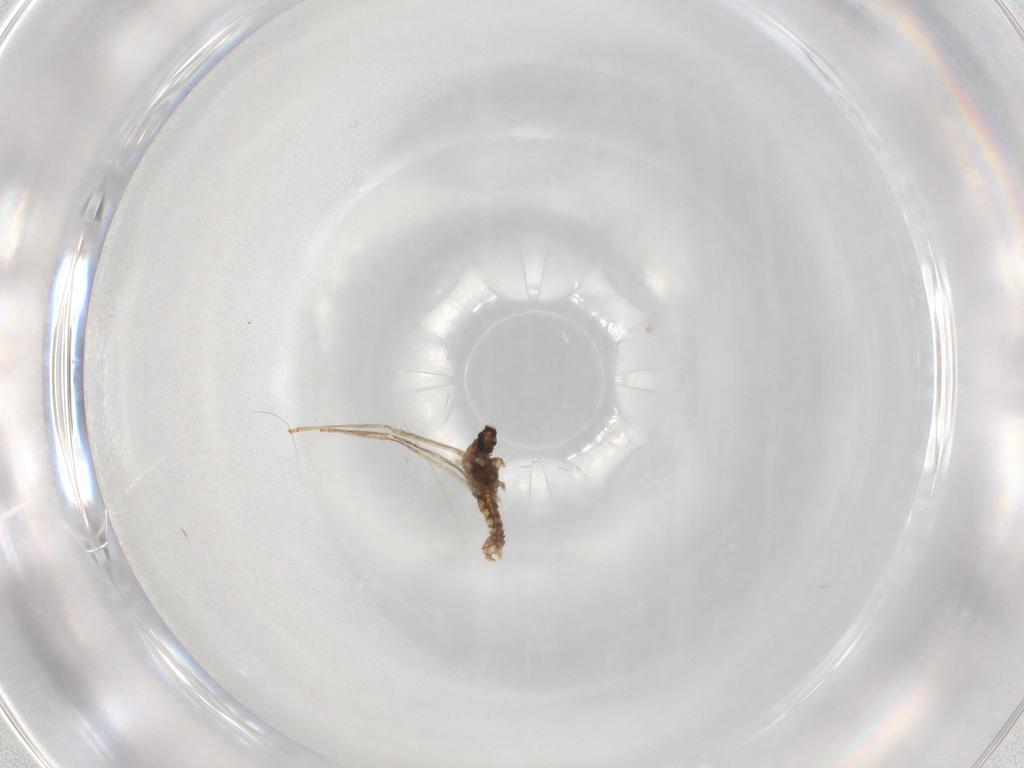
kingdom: Animalia
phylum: Arthropoda
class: Insecta
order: Diptera
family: Cecidomyiidae
